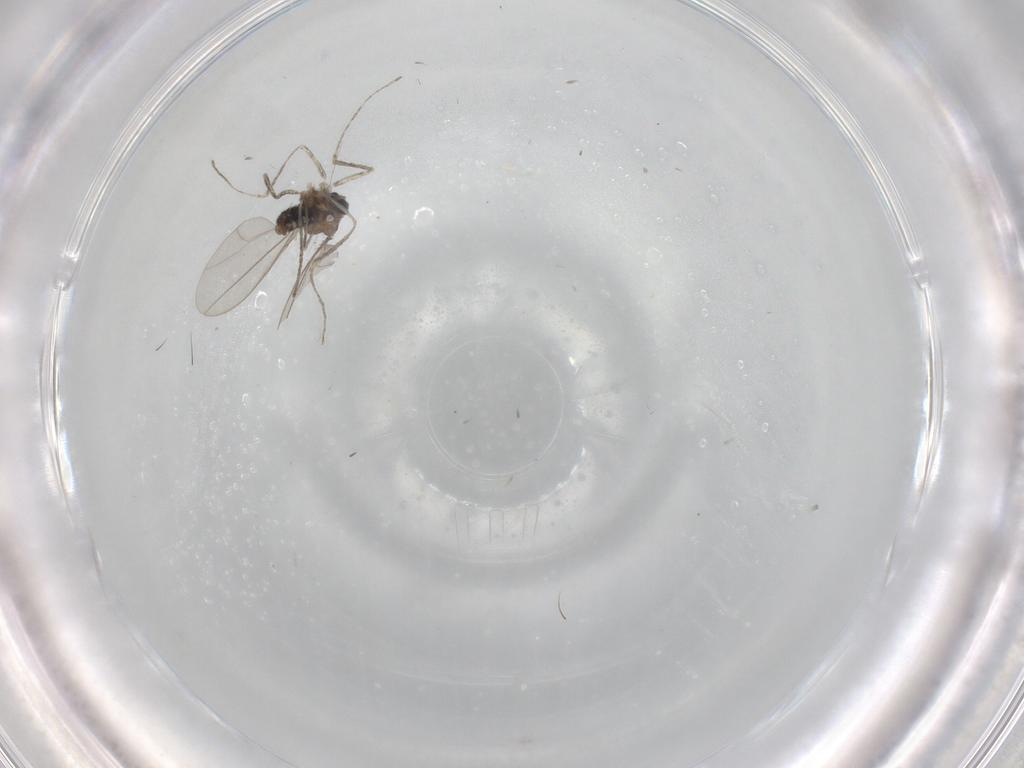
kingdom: Animalia
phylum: Arthropoda
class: Insecta
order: Diptera
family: Cecidomyiidae
